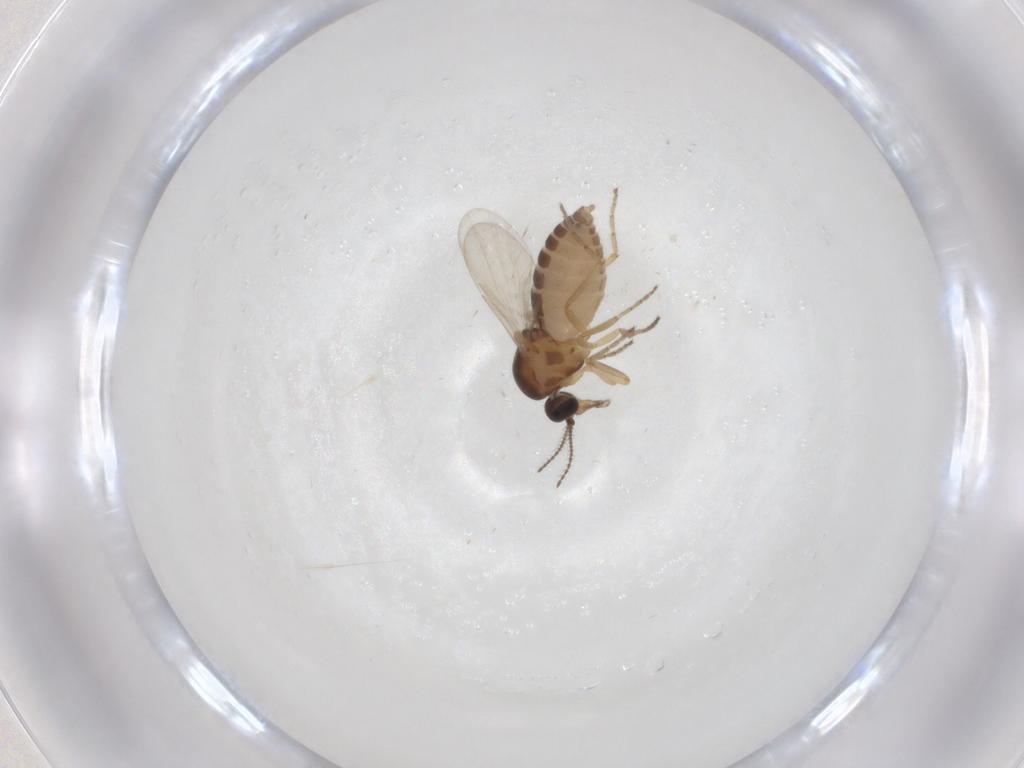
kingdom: Animalia
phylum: Arthropoda
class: Insecta
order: Diptera
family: Ceratopogonidae
